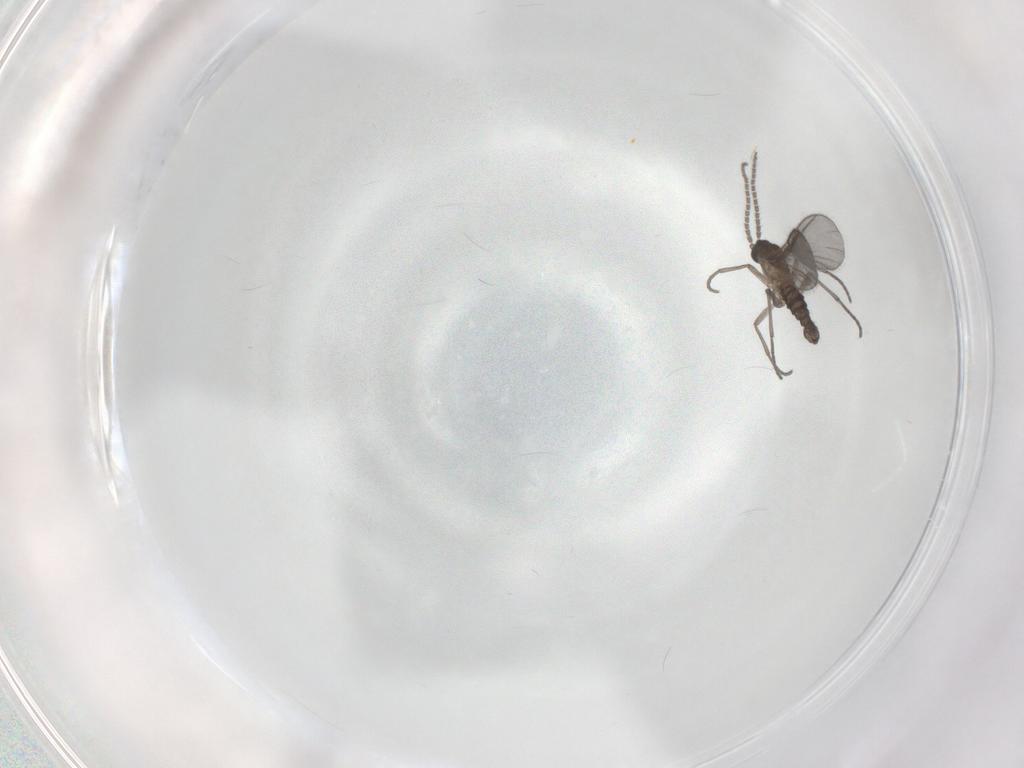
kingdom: Animalia
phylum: Arthropoda
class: Insecta
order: Diptera
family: Sciaridae
